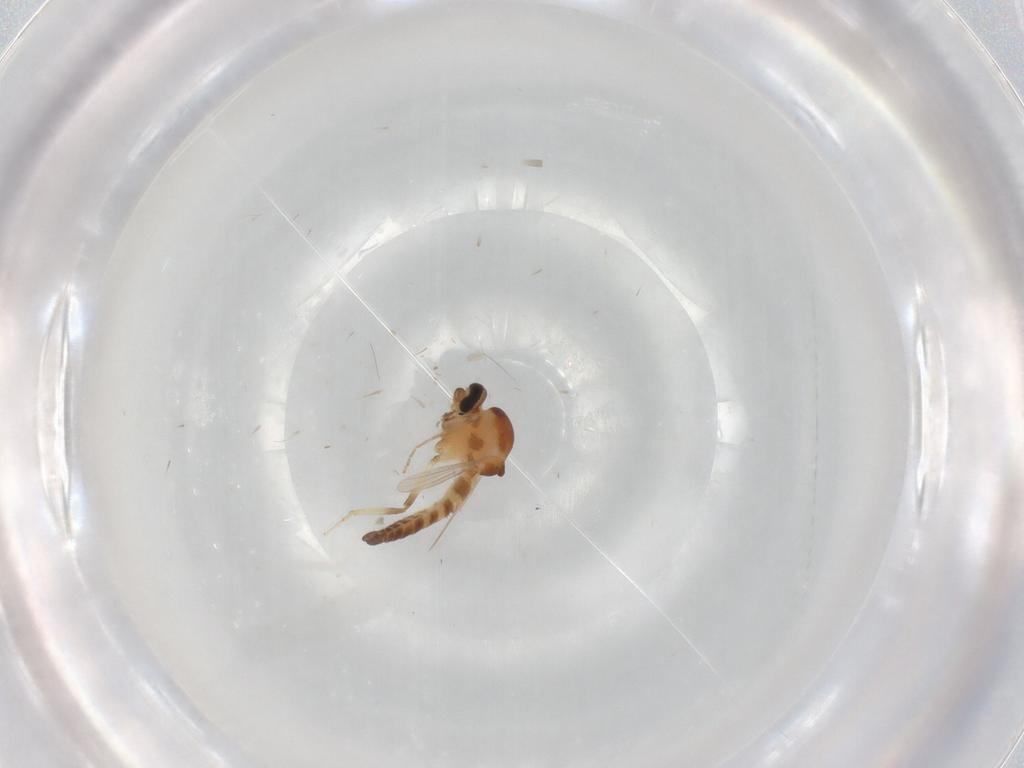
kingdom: Animalia
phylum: Arthropoda
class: Insecta
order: Diptera
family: Ceratopogonidae
